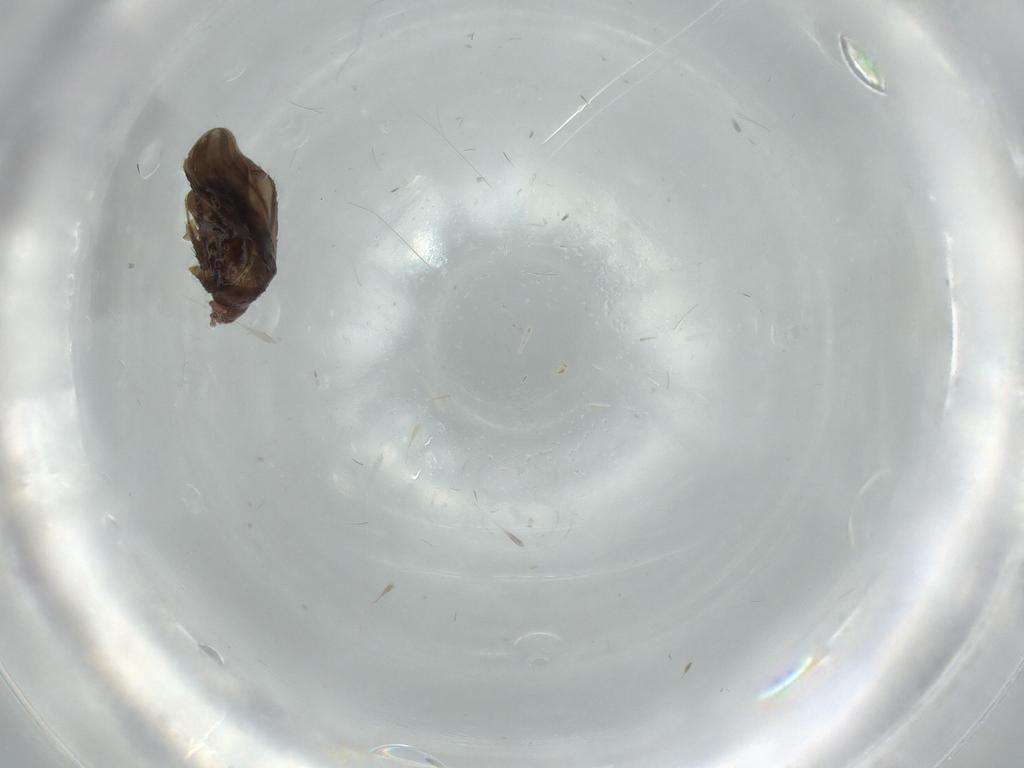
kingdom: Animalia
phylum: Arthropoda
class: Insecta
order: Hemiptera
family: Ceratocombidae
